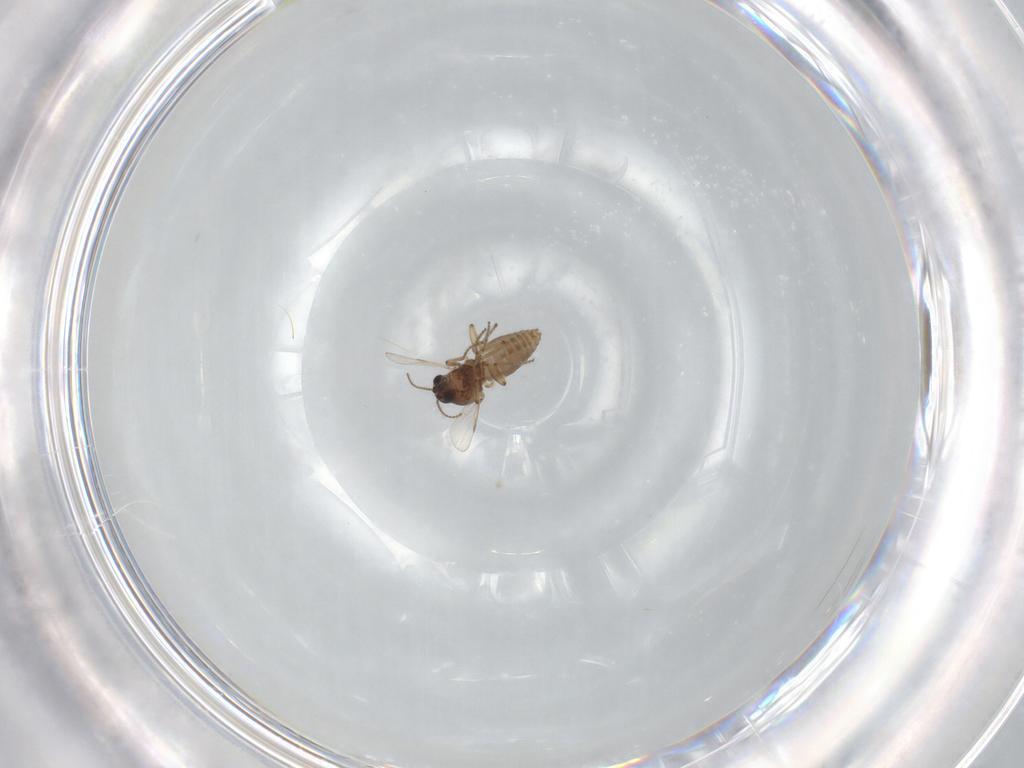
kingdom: Animalia
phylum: Arthropoda
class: Insecta
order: Diptera
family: Ceratopogonidae
